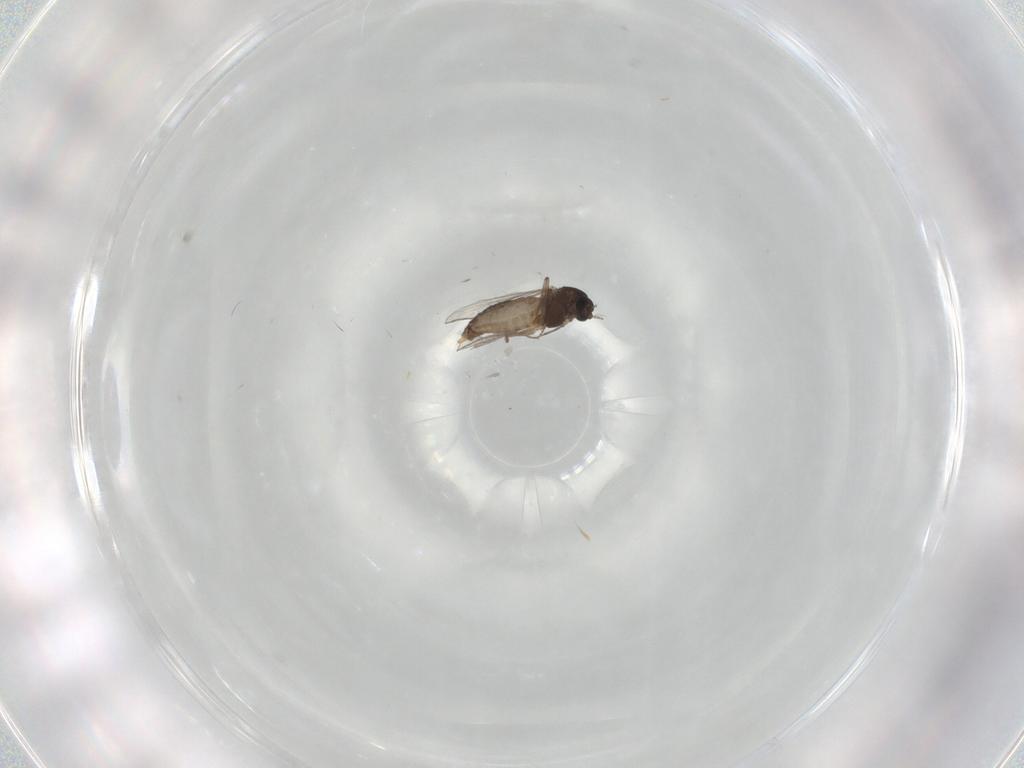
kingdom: Animalia
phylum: Arthropoda
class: Insecta
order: Diptera
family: Chironomidae
